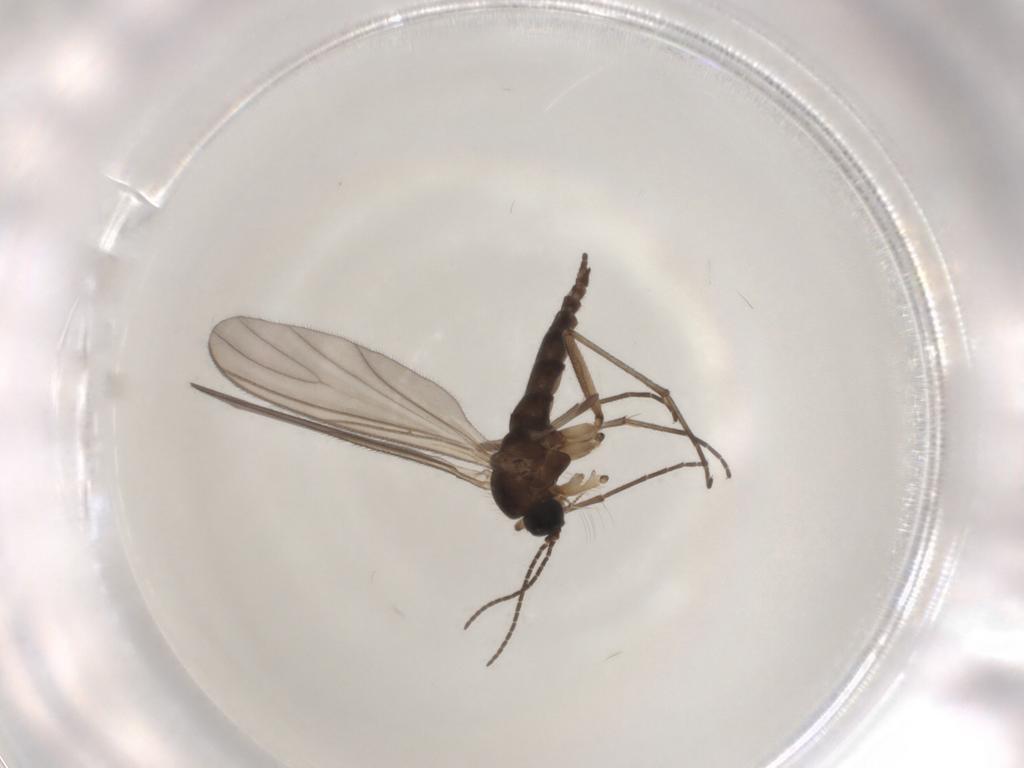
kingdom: Animalia
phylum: Arthropoda
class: Insecta
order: Diptera
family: Sciaridae
